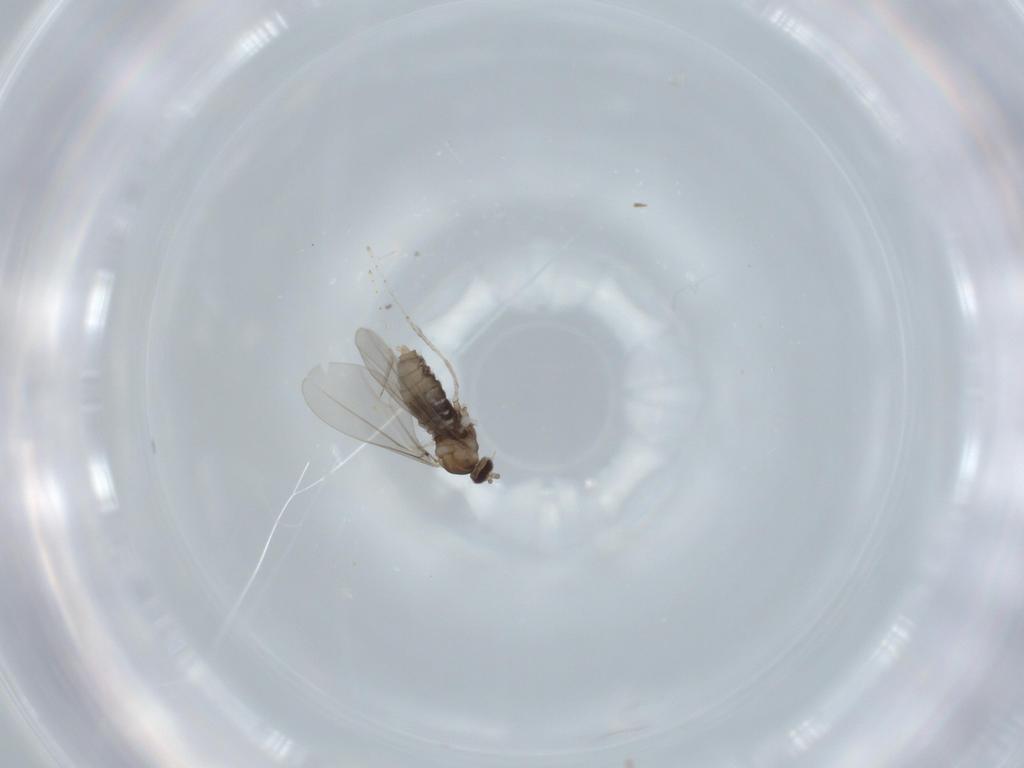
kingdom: Animalia
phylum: Arthropoda
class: Insecta
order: Diptera
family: Cecidomyiidae
